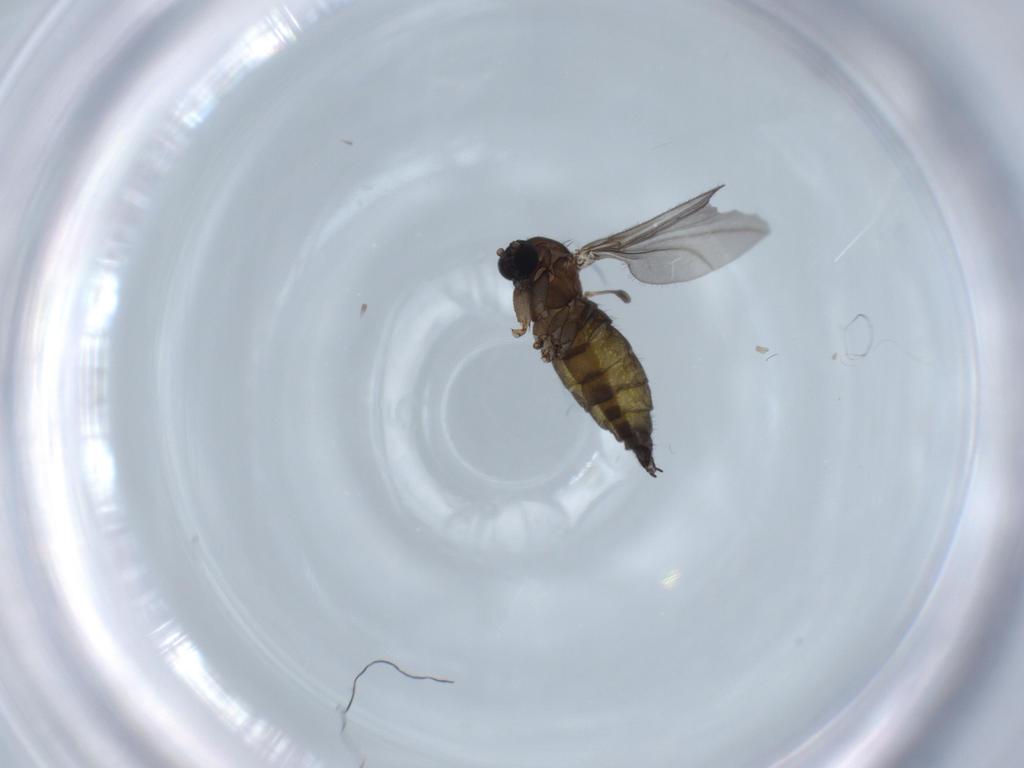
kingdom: Animalia
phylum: Arthropoda
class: Insecta
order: Diptera
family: Sciaridae
